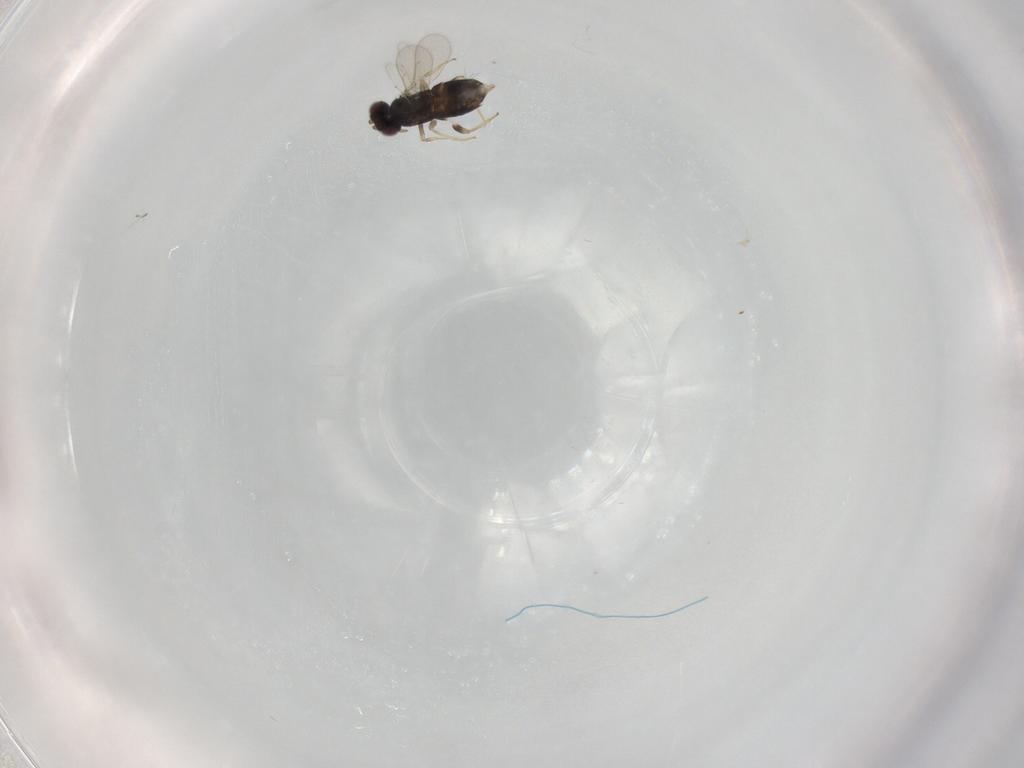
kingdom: Animalia
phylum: Arthropoda
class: Insecta
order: Hymenoptera
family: Aphelinidae
